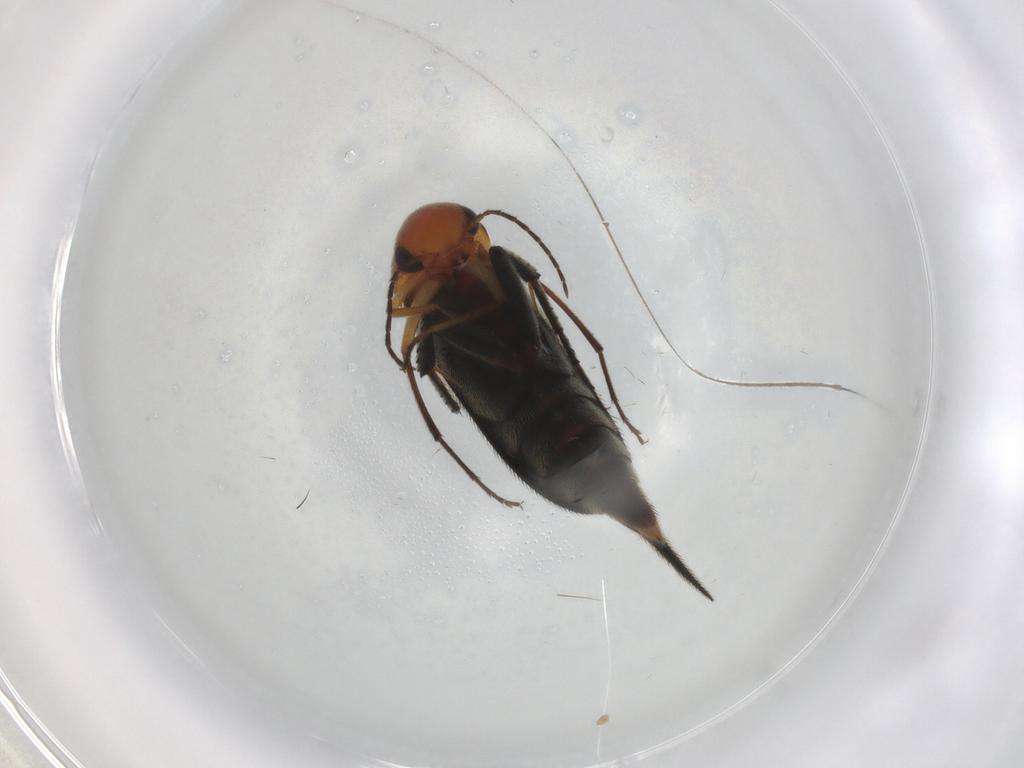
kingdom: Animalia
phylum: Arthropoda
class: Insecta
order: Coleoptera
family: Mordellidae
